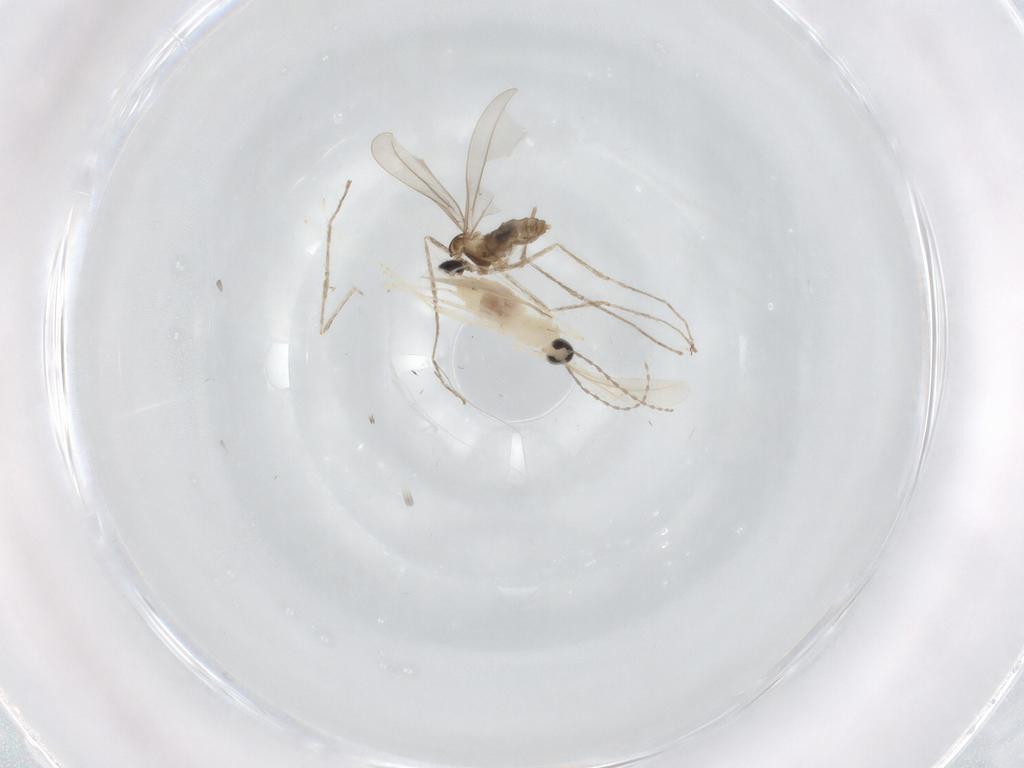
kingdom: Animalia
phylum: Arthropoda
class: Insecta
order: Diptera
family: Cecidomyiidae
